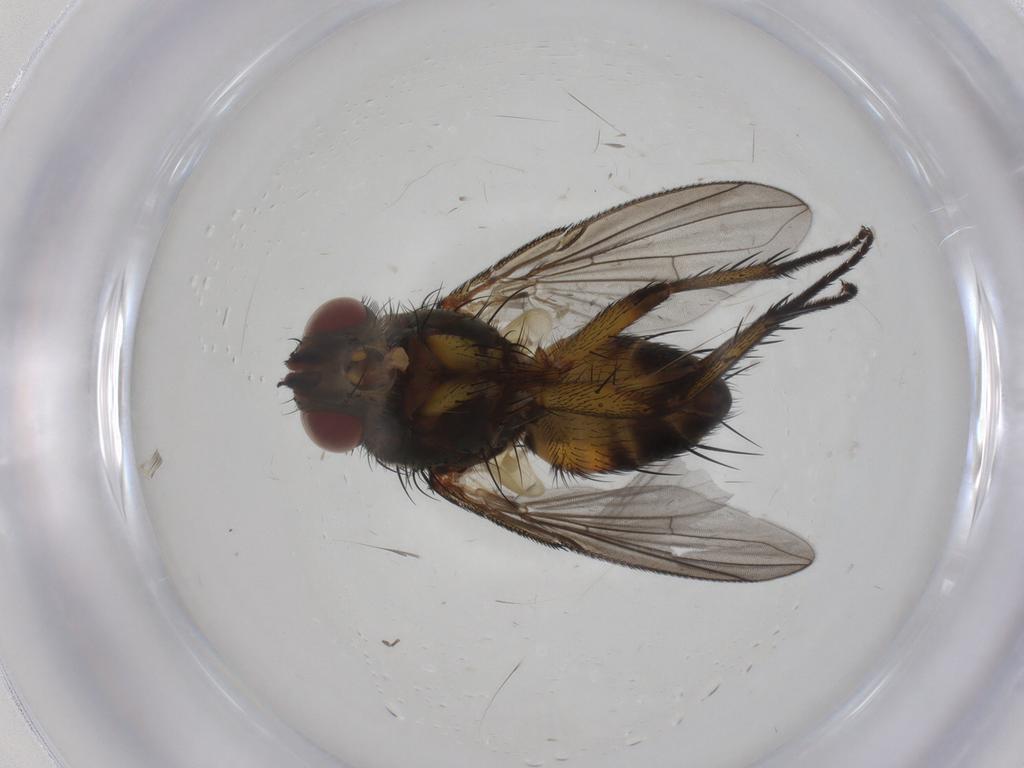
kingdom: Animalia
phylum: Arthropoda
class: Insecta
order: Diptera
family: Tachinidae
